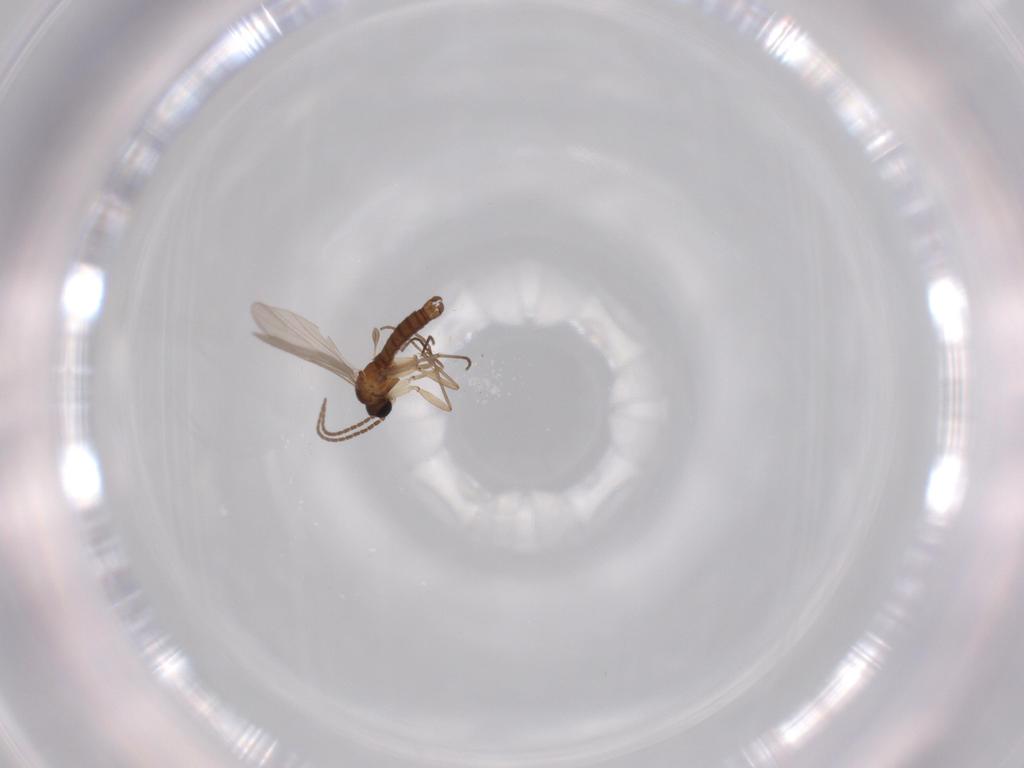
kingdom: Animalia
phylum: Arthropoda
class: Insecta
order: Diptera
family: Sciaridae
